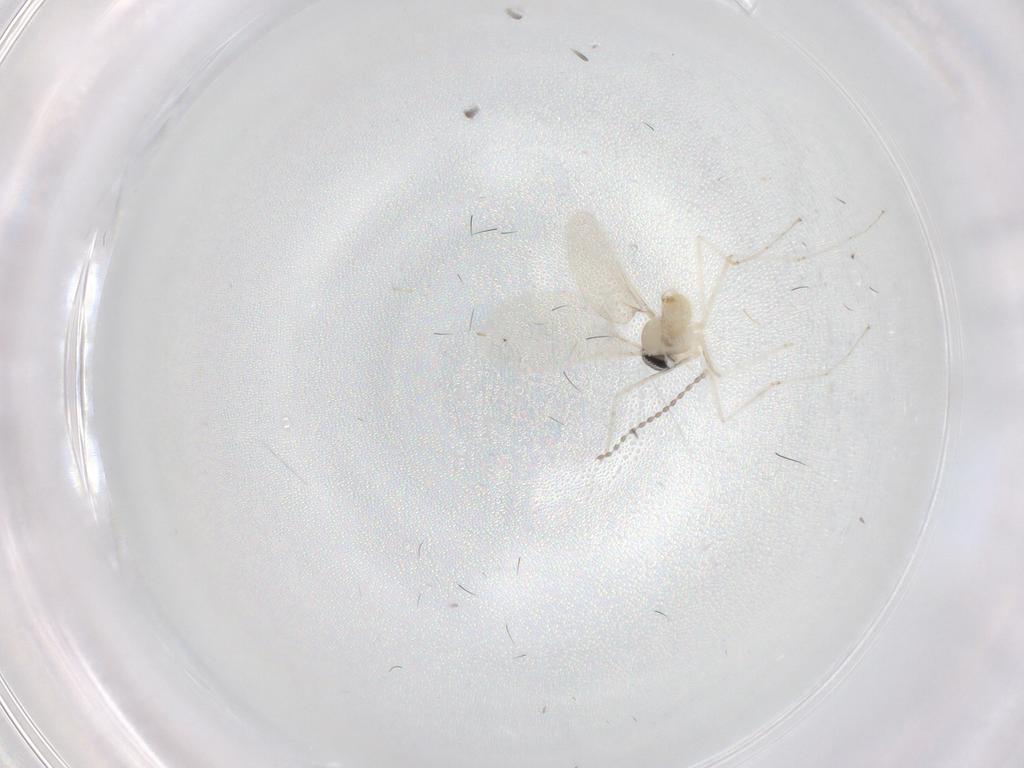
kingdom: Animalia
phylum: Arthropoda
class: Insecta
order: Diptera
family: Cecidomyiidae
